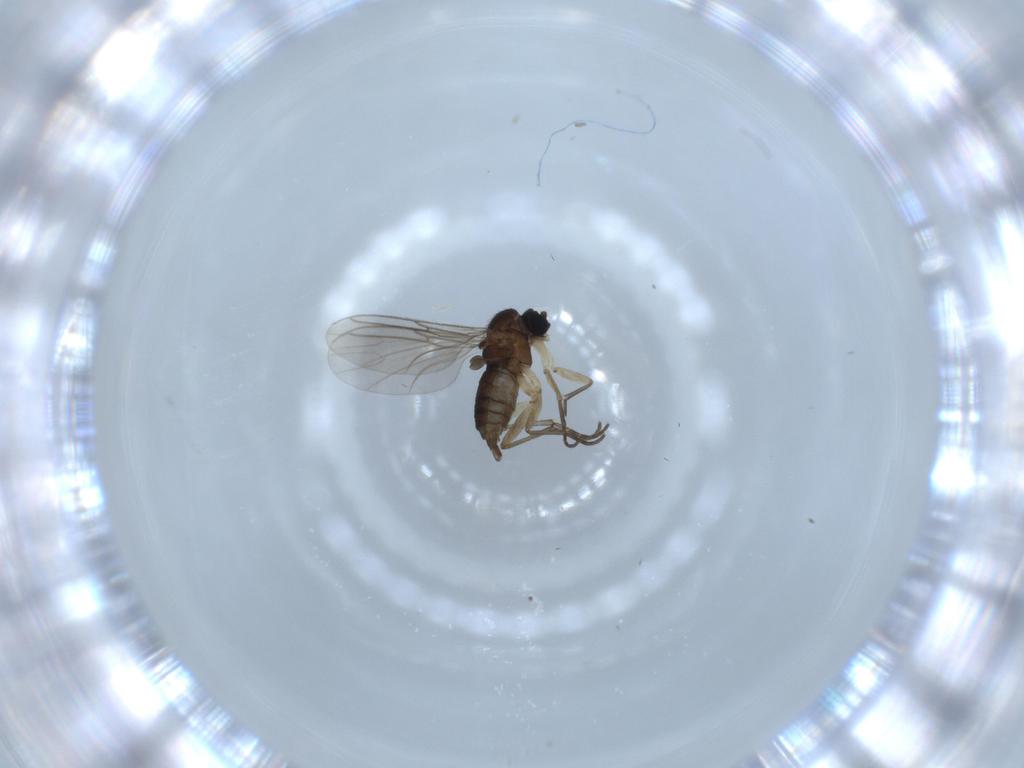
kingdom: Animalia
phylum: Arthropoda
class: Insecta
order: Diptera
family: Sciaridae
